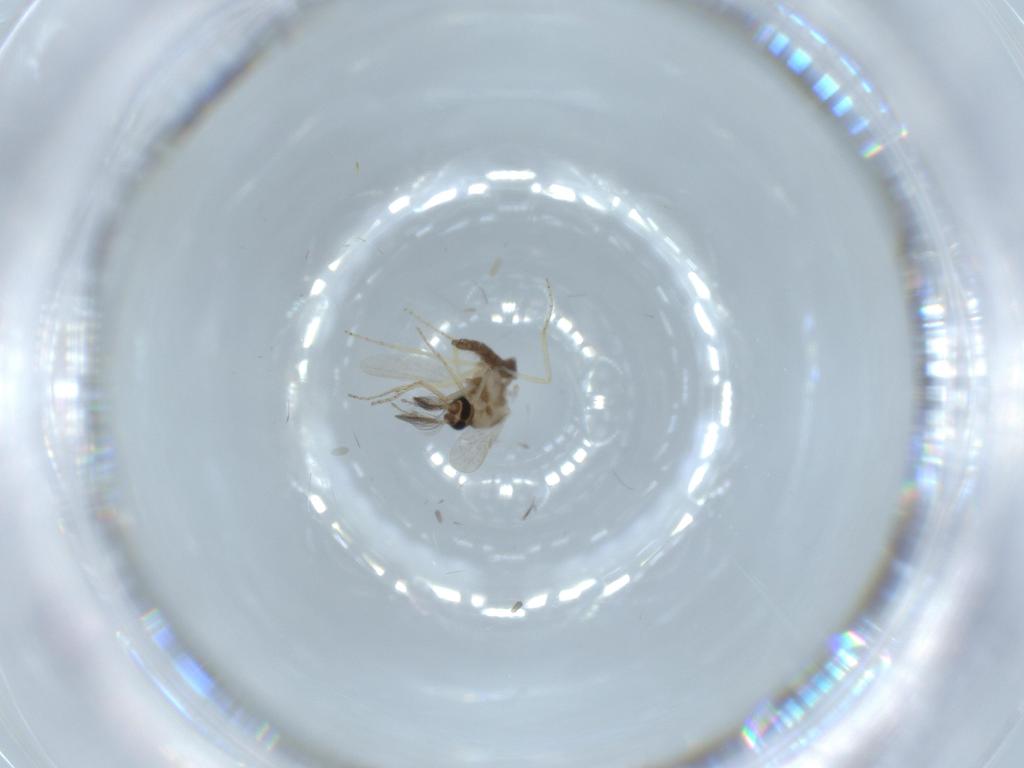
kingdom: Animalia
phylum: Arthropoda
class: Insecta
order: Diptera
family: Ceratopogonidae
